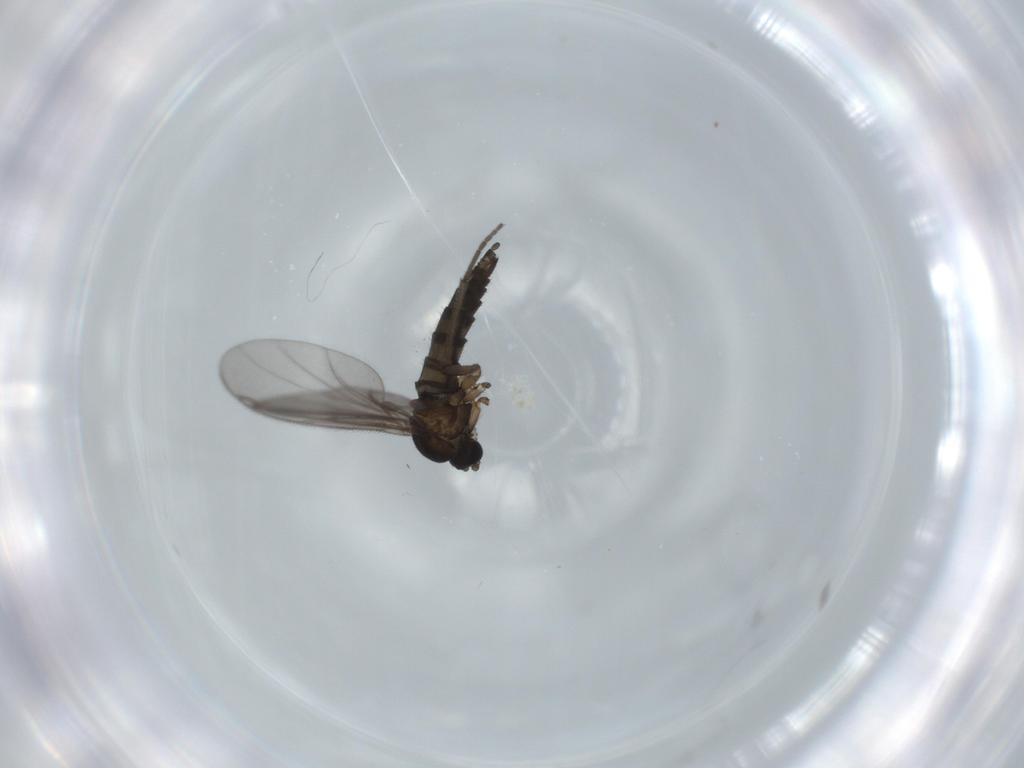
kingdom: Animalia
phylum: Arthropoda
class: Insecta
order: Diptera
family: Sciaridae
